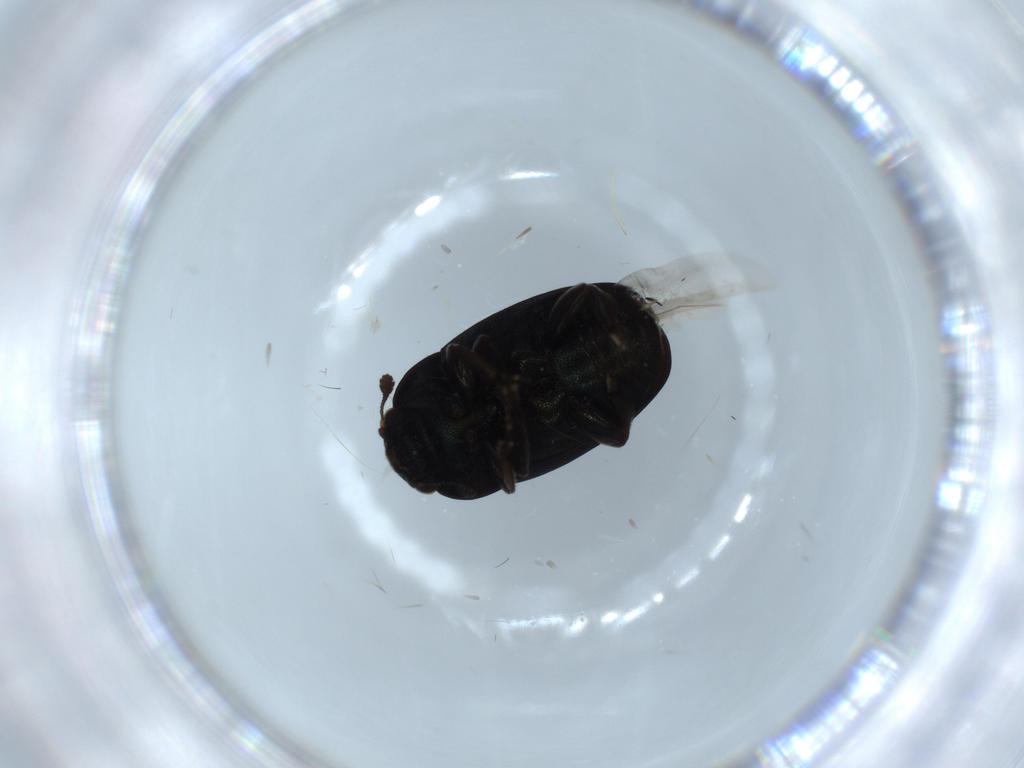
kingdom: Animalia
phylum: Arthropoda
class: Insecta
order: Coleoptera
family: Nitidulidae
